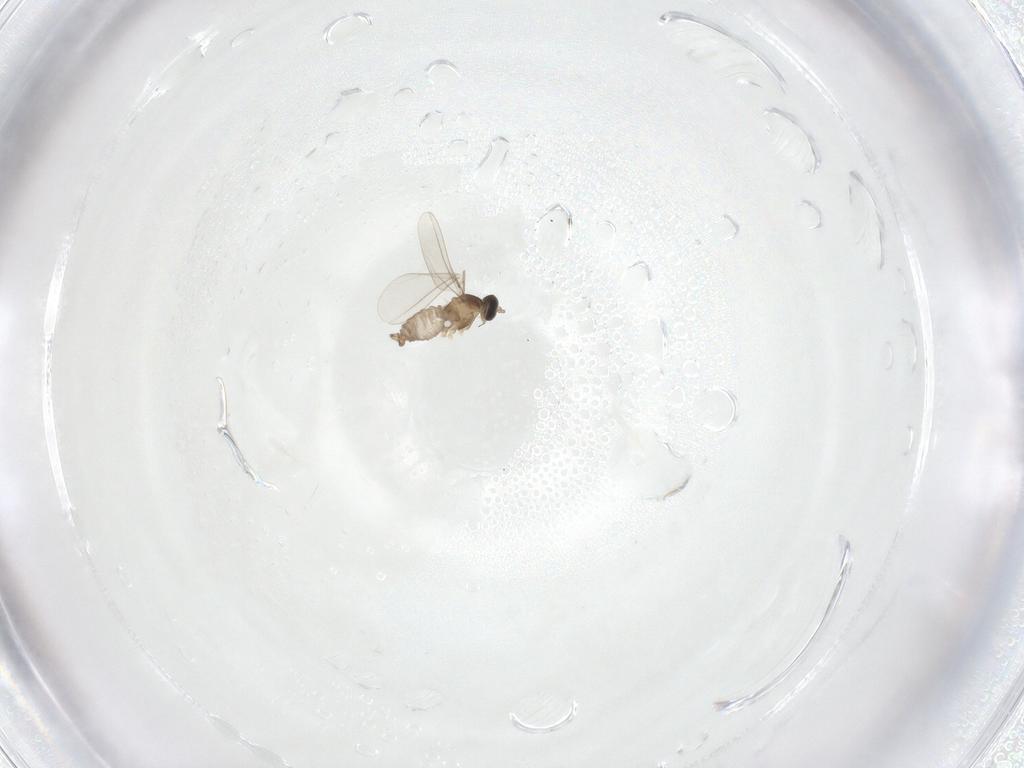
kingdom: Animalia
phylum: Arthropoda
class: Insecta
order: Diptera
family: Cecidomyiidae
